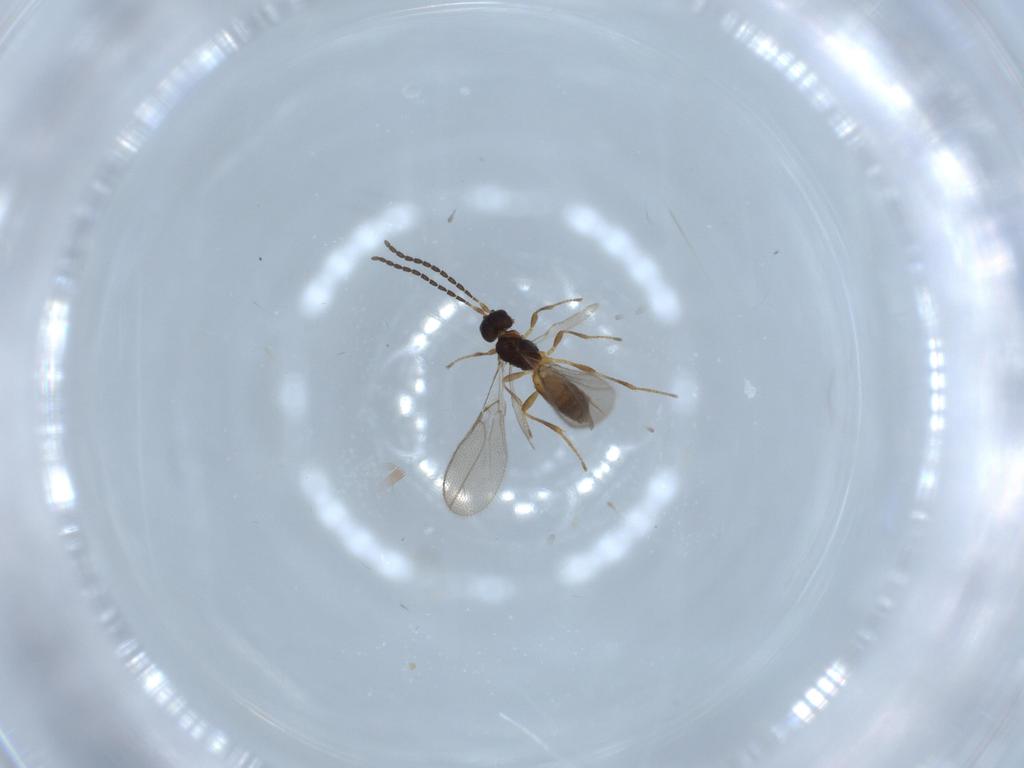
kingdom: Animalia
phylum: Arthropoda
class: Insecta
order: Hymenoptera
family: Braconidae
